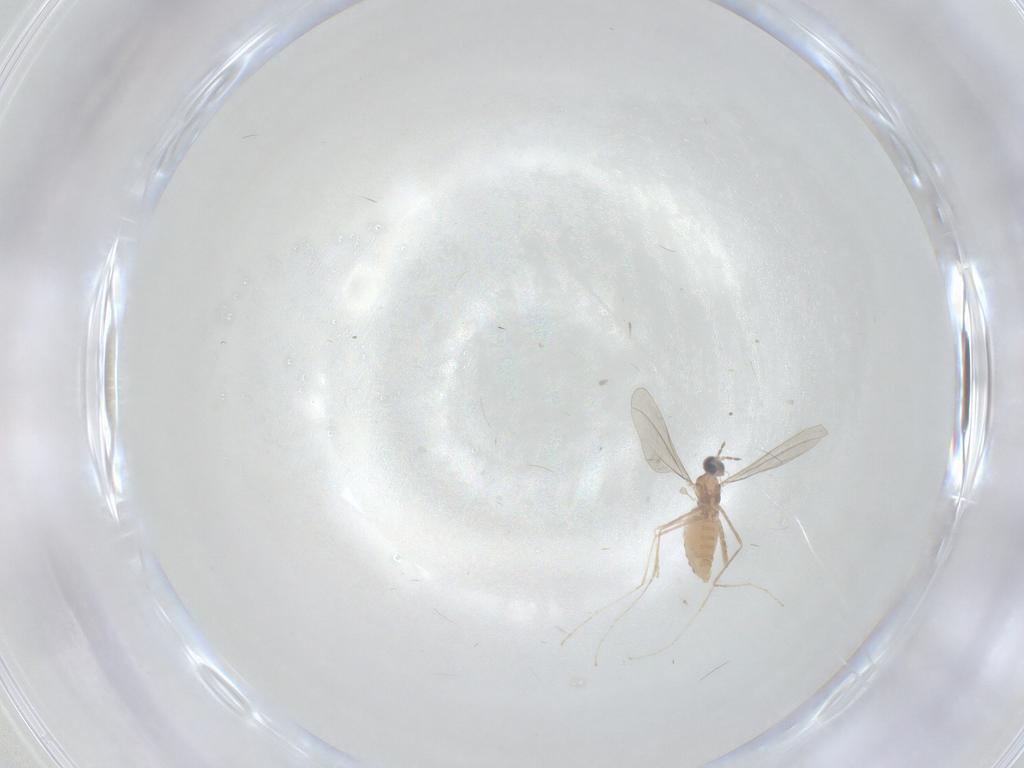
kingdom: Animalia
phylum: Arthropoda
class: Insecta
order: Diptera
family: Cecidomyiidae
